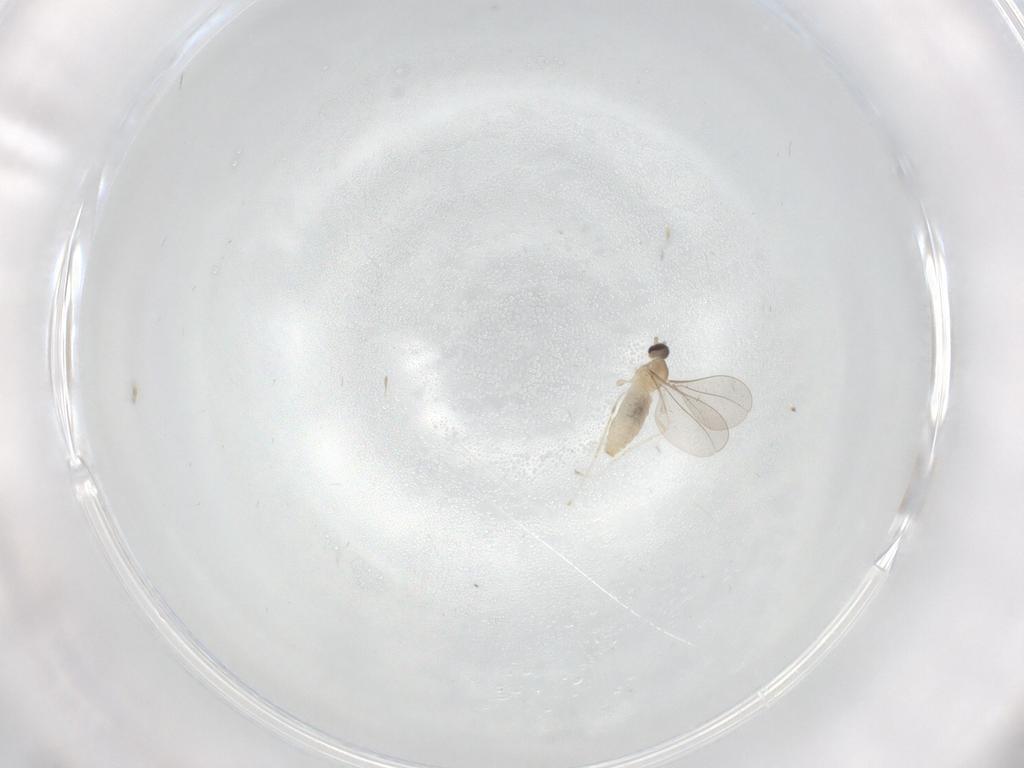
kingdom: Animalia
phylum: Arthropoda
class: Insecta
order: Diptera
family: Cecidomyiidae
